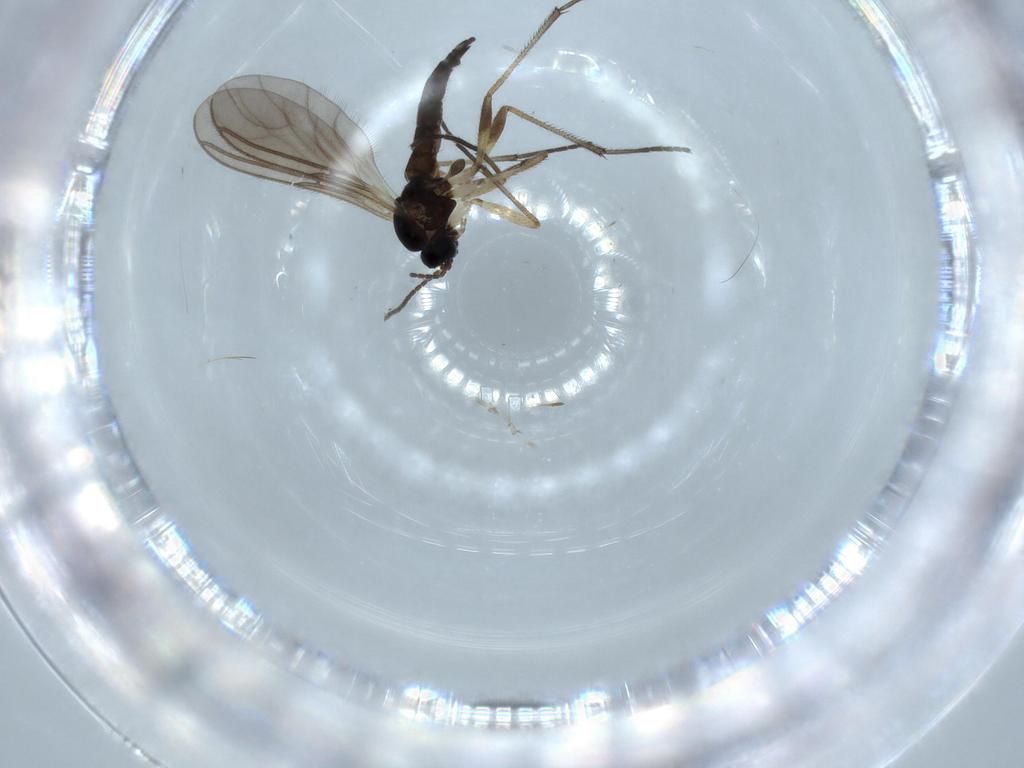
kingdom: Animalia
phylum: Arthropoda
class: Insecta
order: Diptera
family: Sciaridae
